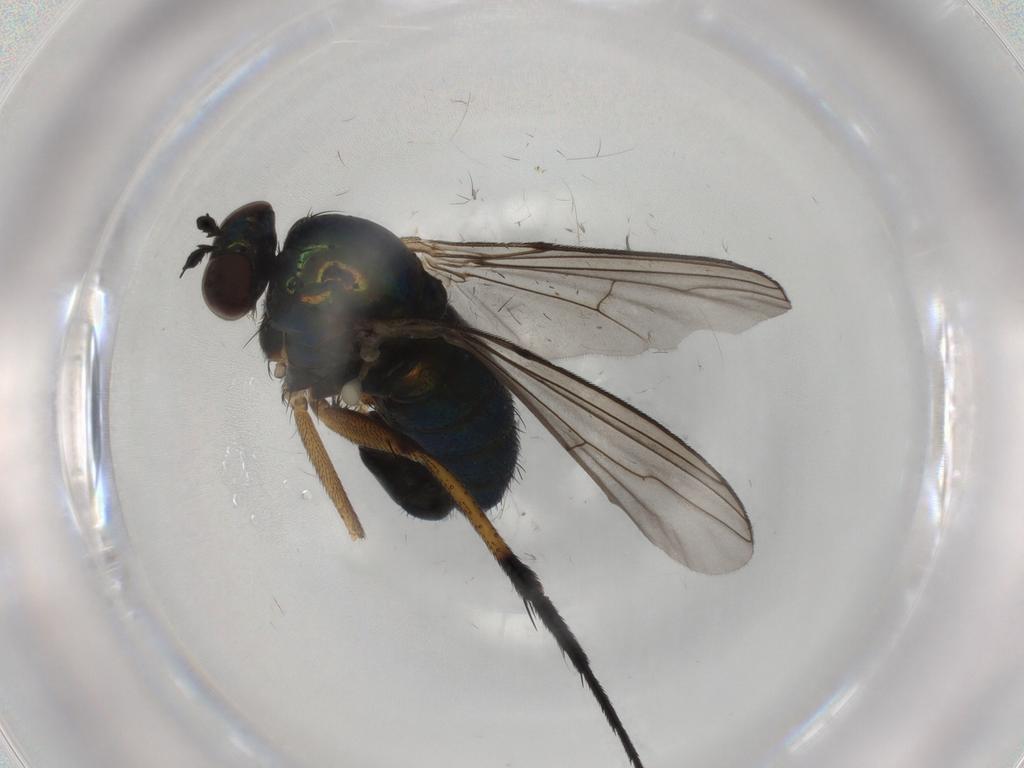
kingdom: Animalia
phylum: Arthropoda
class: Insecta
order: Diptera
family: Dolichopodidae
